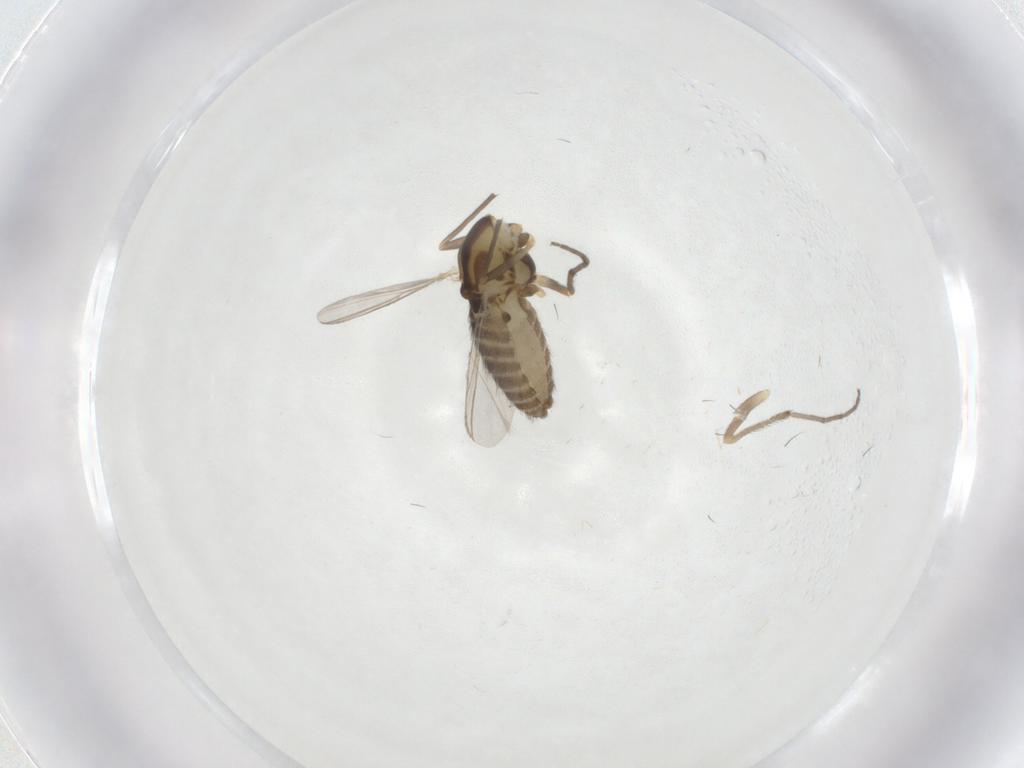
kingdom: Animalia
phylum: Arthropoda
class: Insecta
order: Diptera
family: Chironomidae
